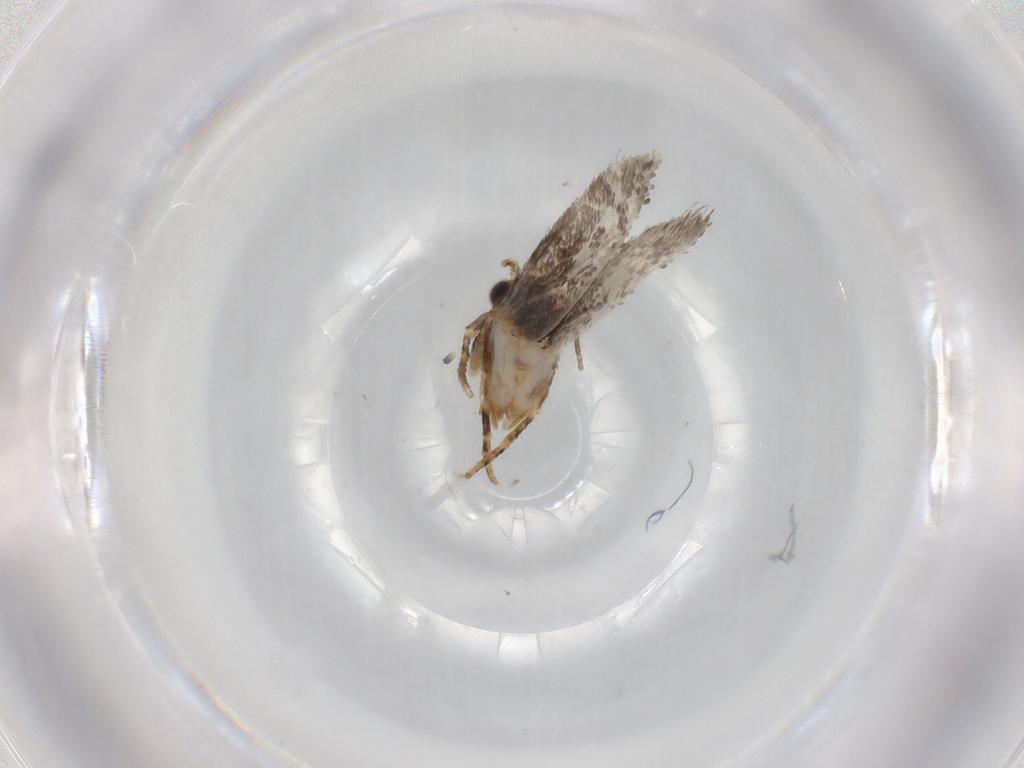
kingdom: Animalia
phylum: Arthropoda
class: Insecta
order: Lepidoptera
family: Tineidae
